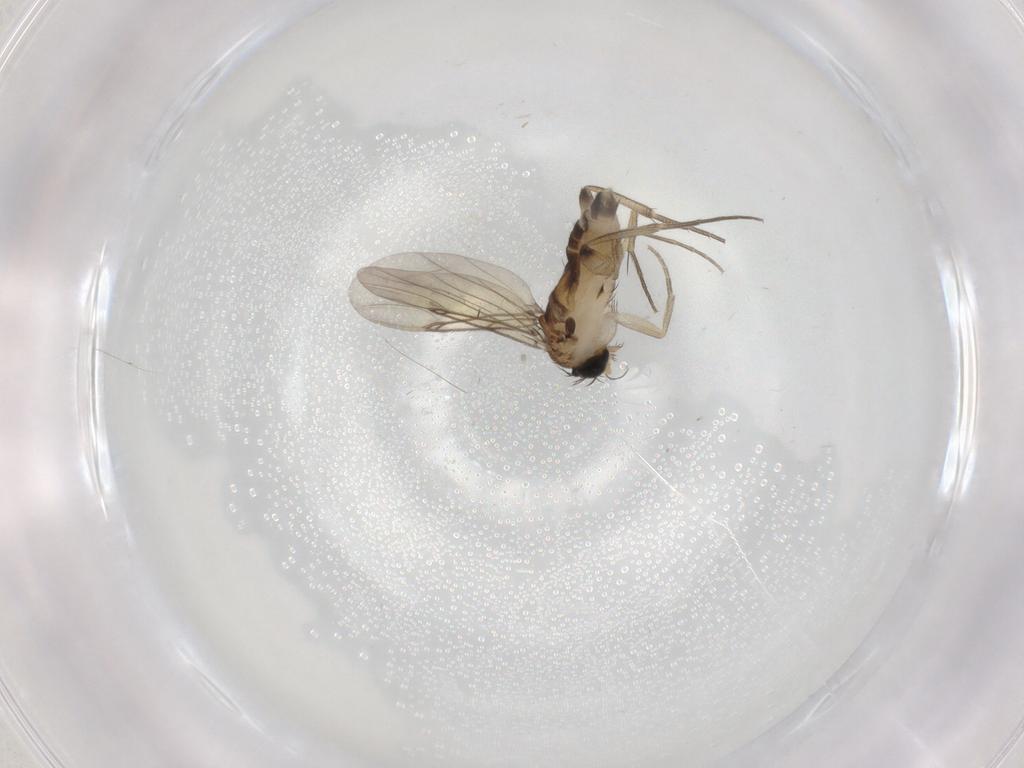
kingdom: Animalia
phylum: Arthropoda
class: Insecta
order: Diptera
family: Phoridae
